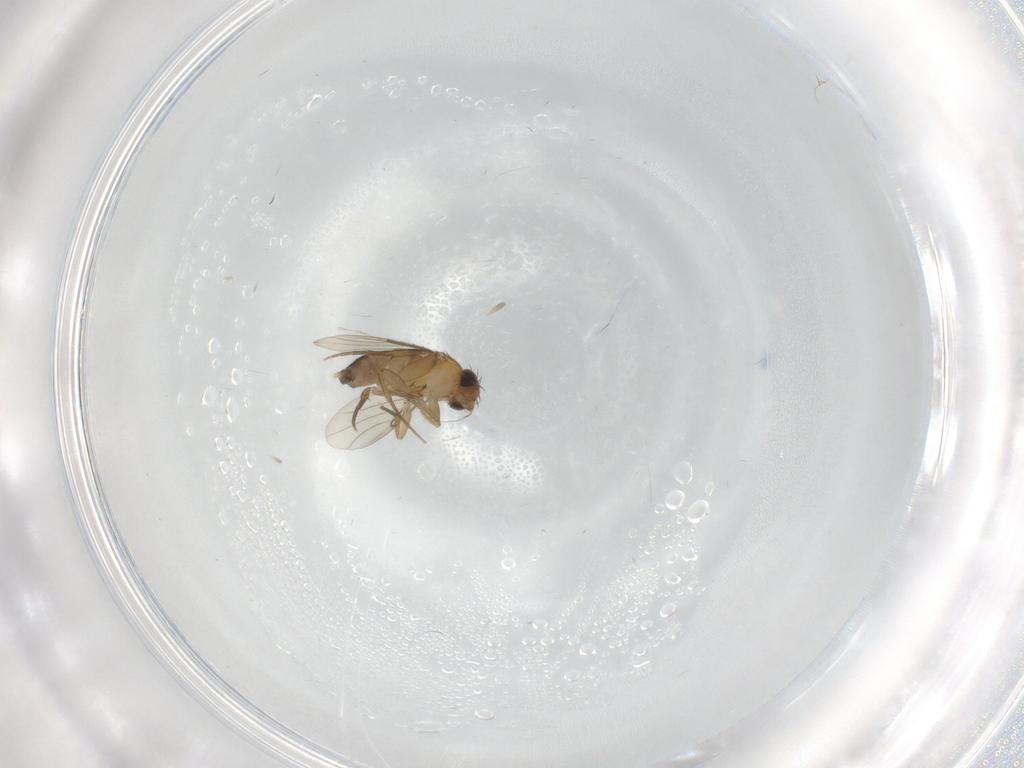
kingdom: Animalia
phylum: Arthropoda
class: Insecta
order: Diptera
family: Phoridae
